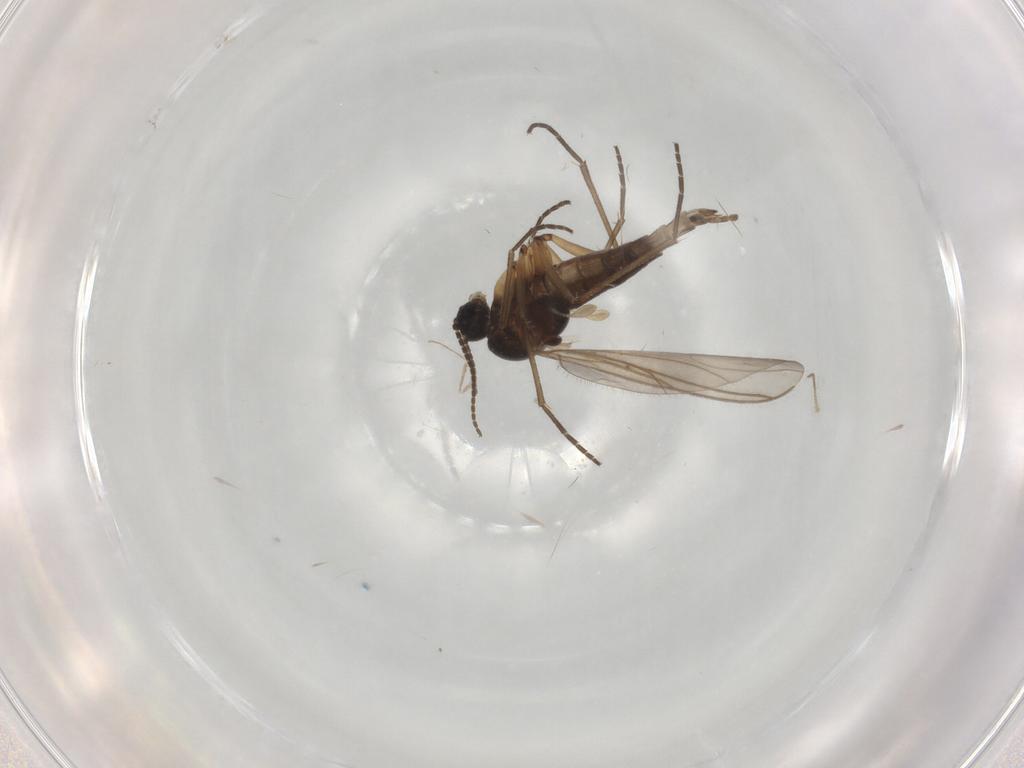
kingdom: Animalia
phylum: Arthropoda
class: Insecta
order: Diptera
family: Sciaridae
